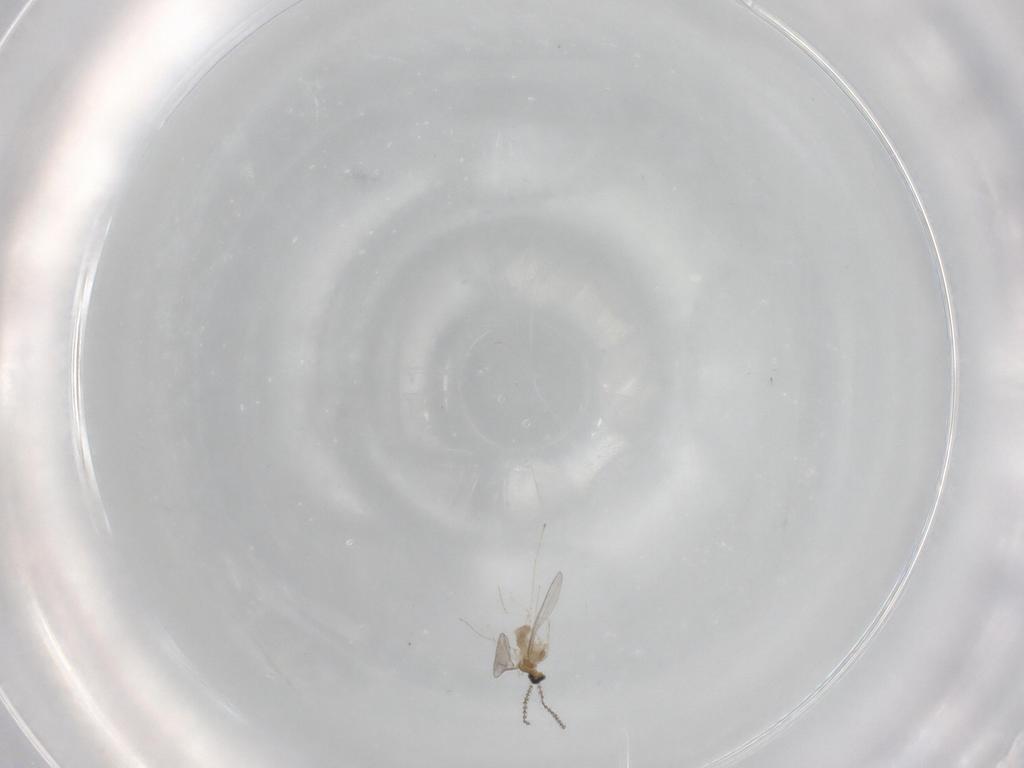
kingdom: Animalia
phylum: Arthropoda
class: Insecta
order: Diptera
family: Cecidomyiidae
